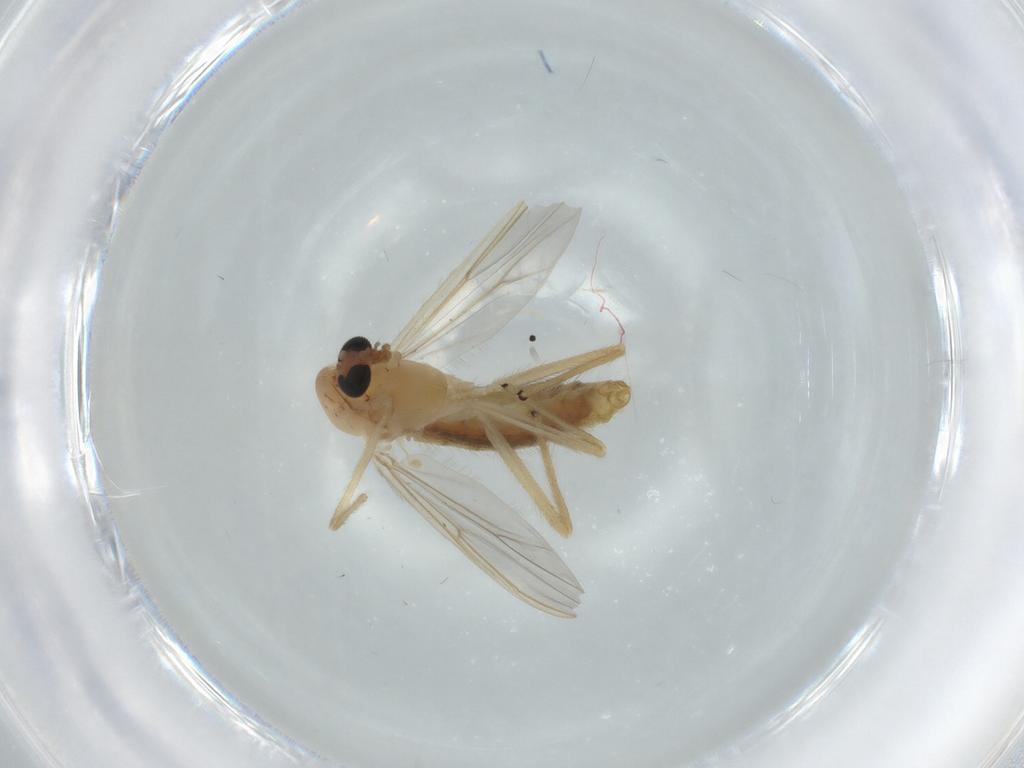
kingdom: Animalia
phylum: Arthropoda
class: Insecta
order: Diptera
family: Chironomidae
